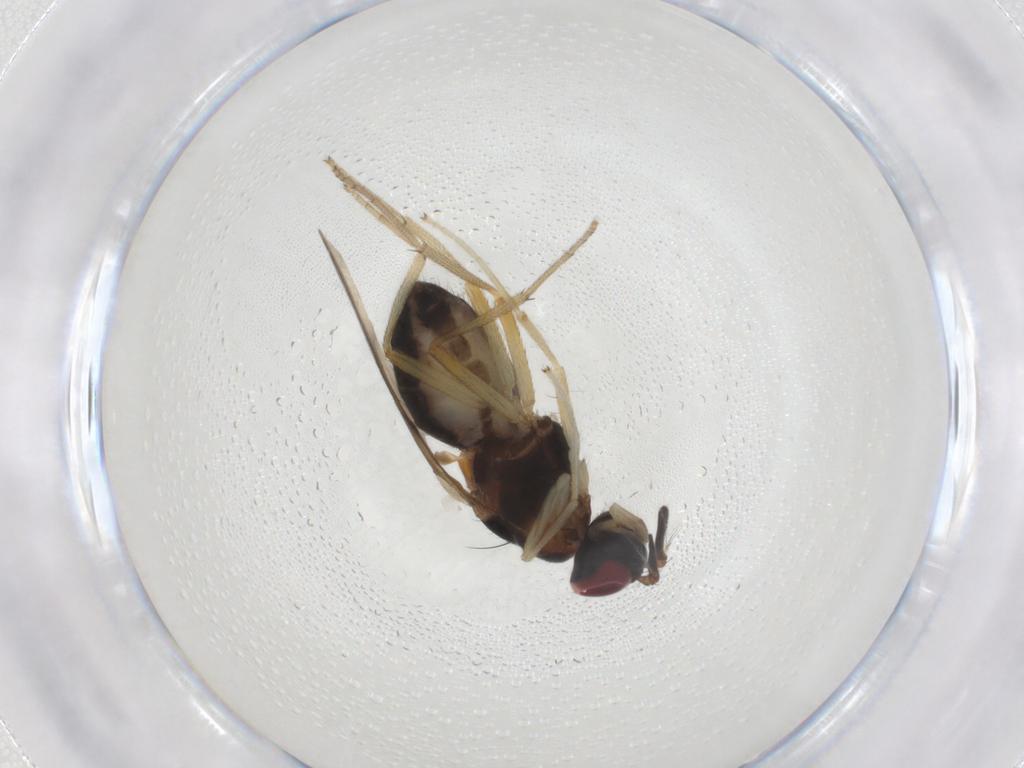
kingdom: Animalia
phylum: Arthropoda
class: Insecta
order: Diptera
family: Lauxaniidae
